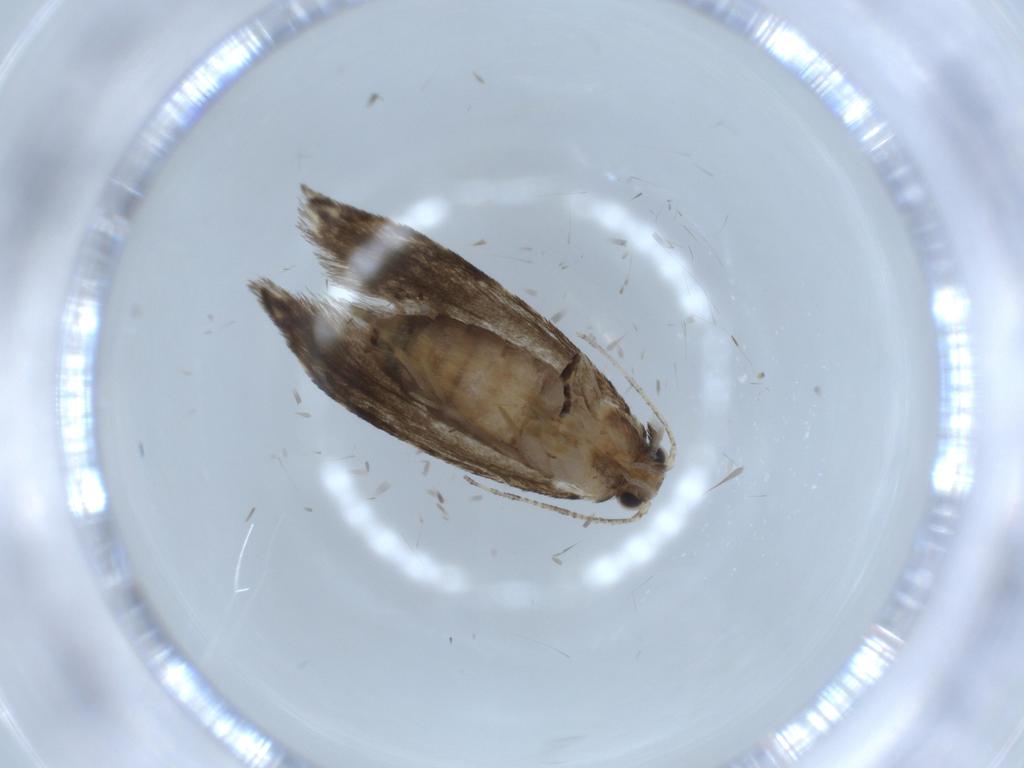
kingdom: Animalia
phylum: Arthropoda
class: Insecta
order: Lepidoptera
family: Tineidae
